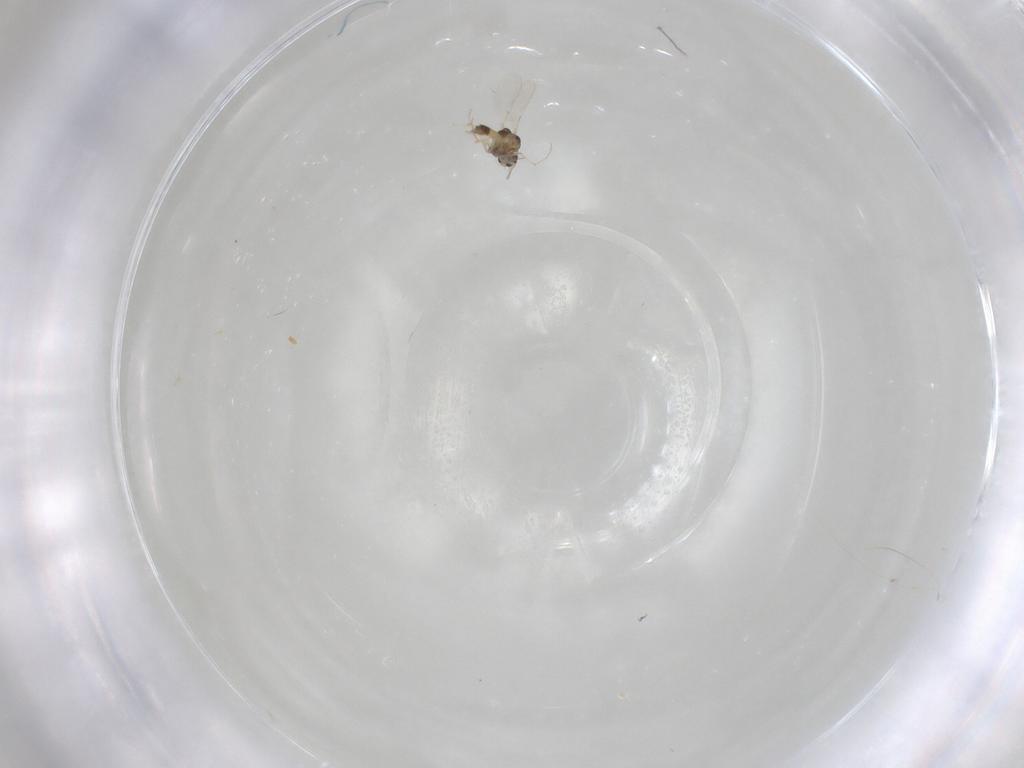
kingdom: Animalia
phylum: Arthropoda
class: Insecta
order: Diptera
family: Chironomidae
